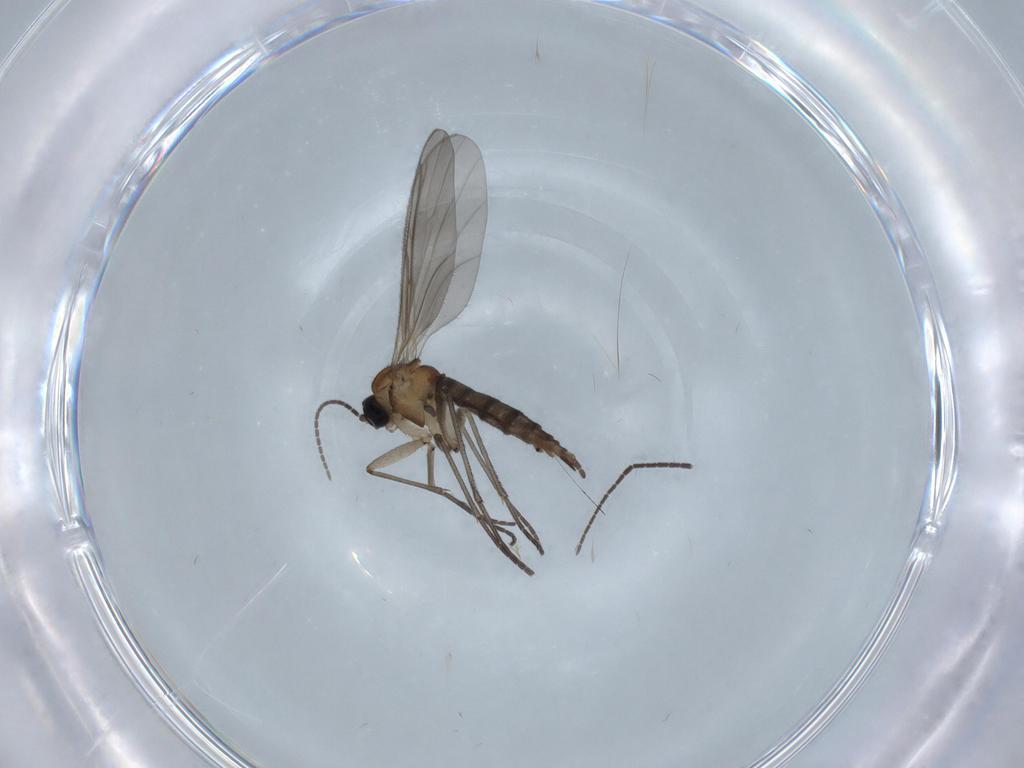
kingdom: Animalia
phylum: Arthropoda
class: Insecta
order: Diptera
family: Sciaridae
